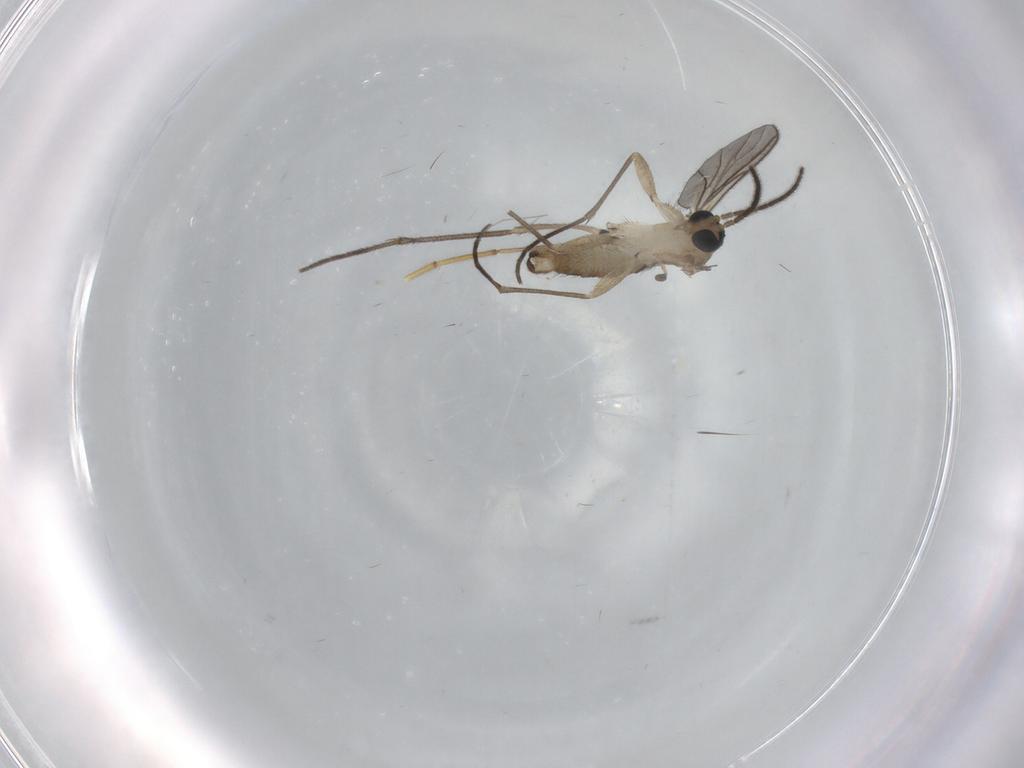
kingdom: Animalia
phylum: Arthropoda
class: Insecta
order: Diptera
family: Sciaridae
